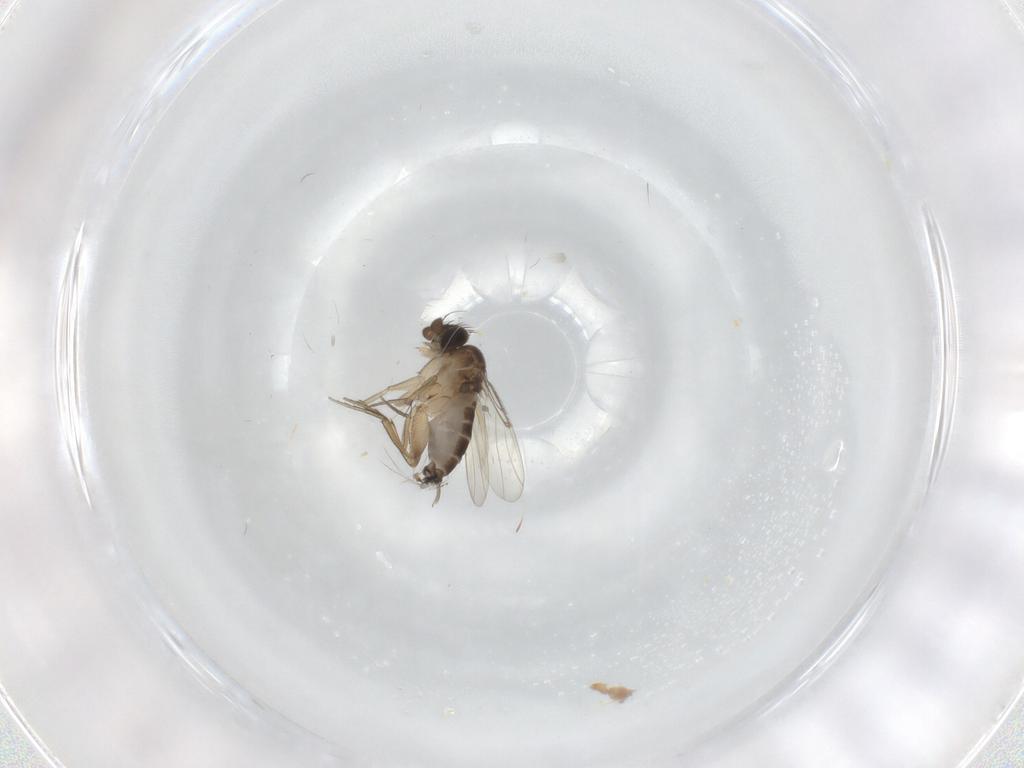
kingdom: Animalia
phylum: Arthropoda
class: Insecta
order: Diptera
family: Phoridae
